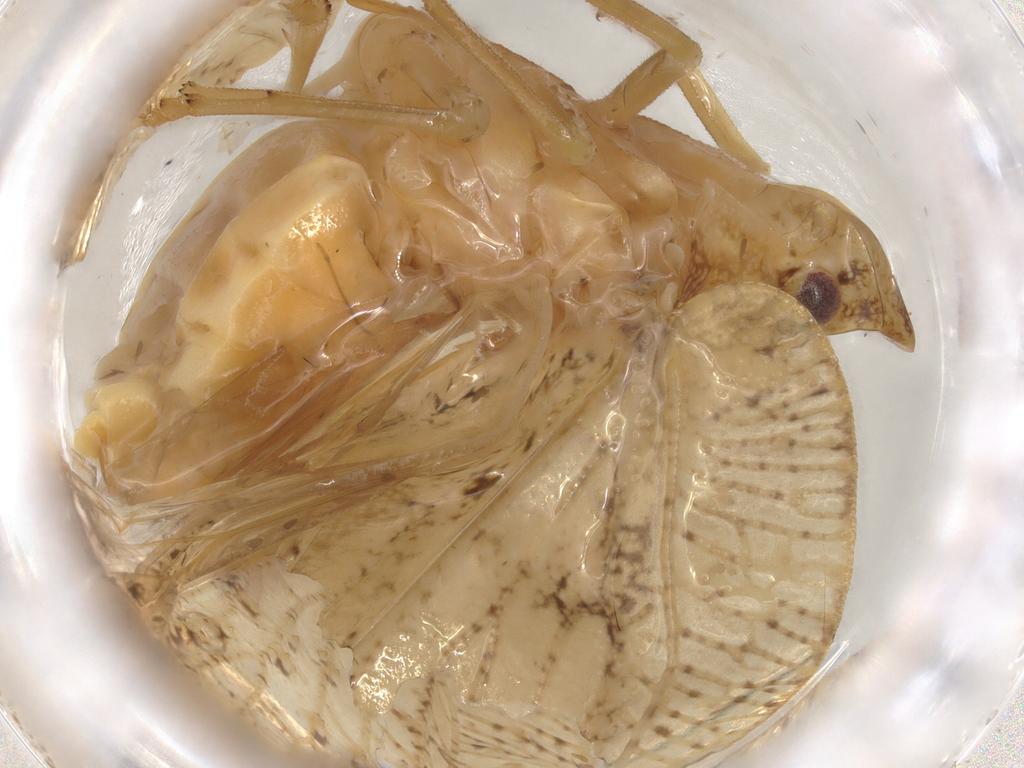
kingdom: Animalia
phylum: Arthropoda
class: Insecta
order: Hemiptera
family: Flatidae
